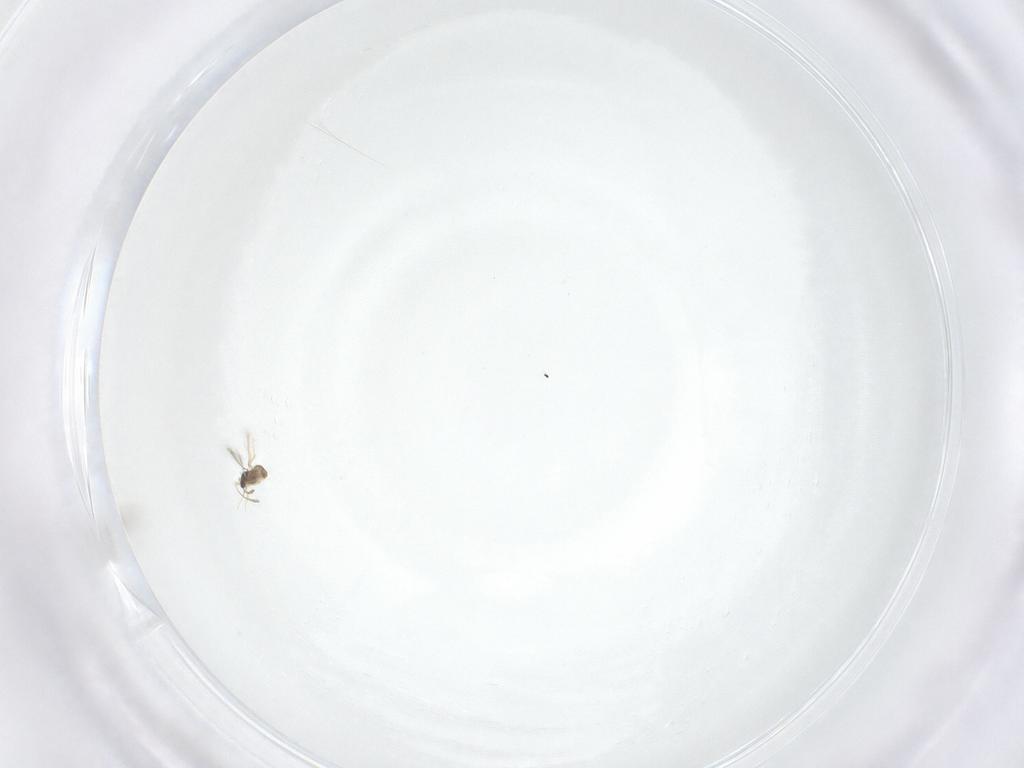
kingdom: Animalia
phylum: Arthropoda
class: Insecta
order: Hymenoptera
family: Mymaridae
